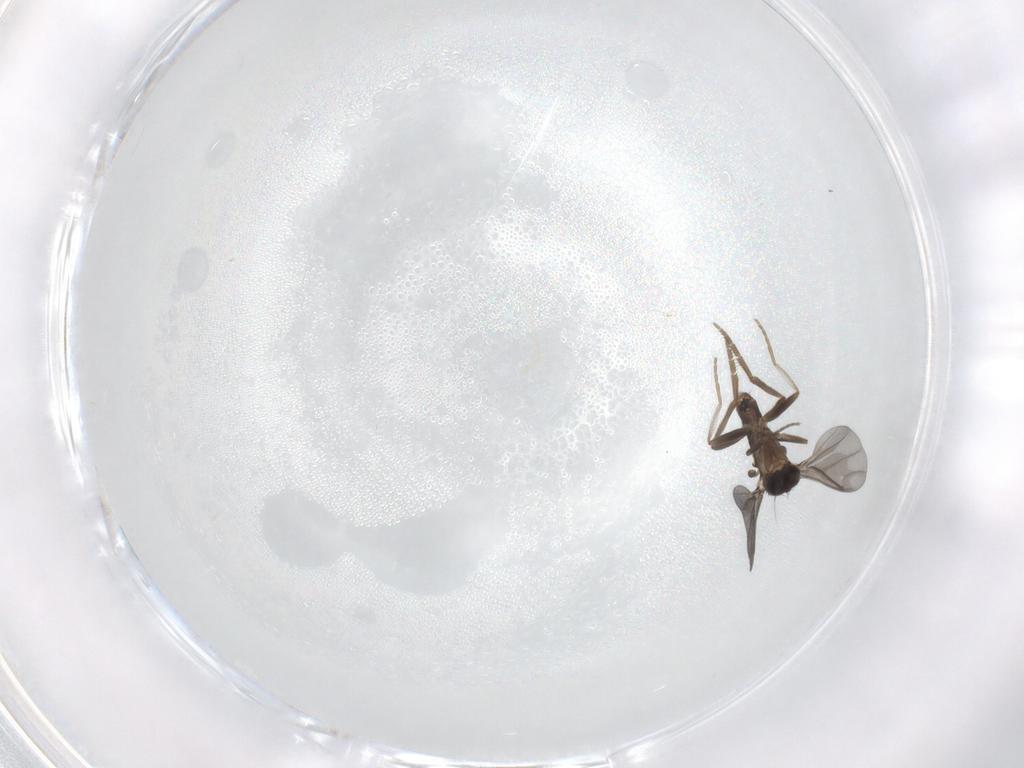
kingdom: Animalia
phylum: Arthropoda
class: Insecta
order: Diptera
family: Phoridae
